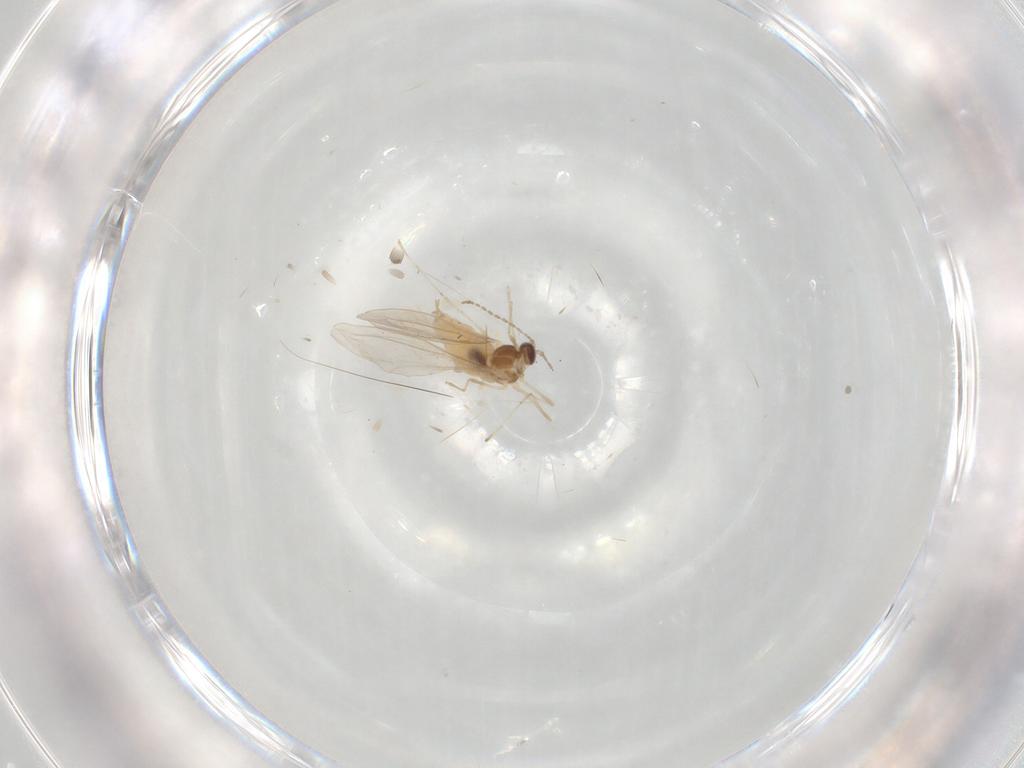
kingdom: Animalia
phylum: Arthropoda
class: Insecta
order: Diptera
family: Cecidomyiidae
